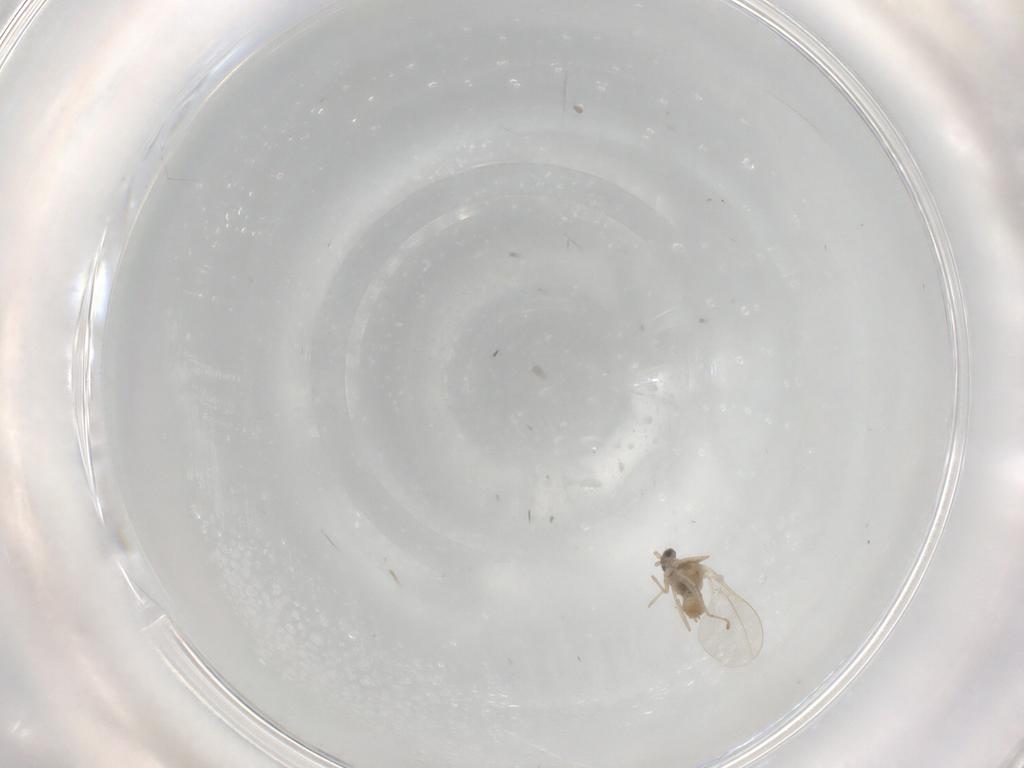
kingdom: Animalia
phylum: Arthropoda
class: Insecta
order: Diptera
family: Cecidomyiidae
